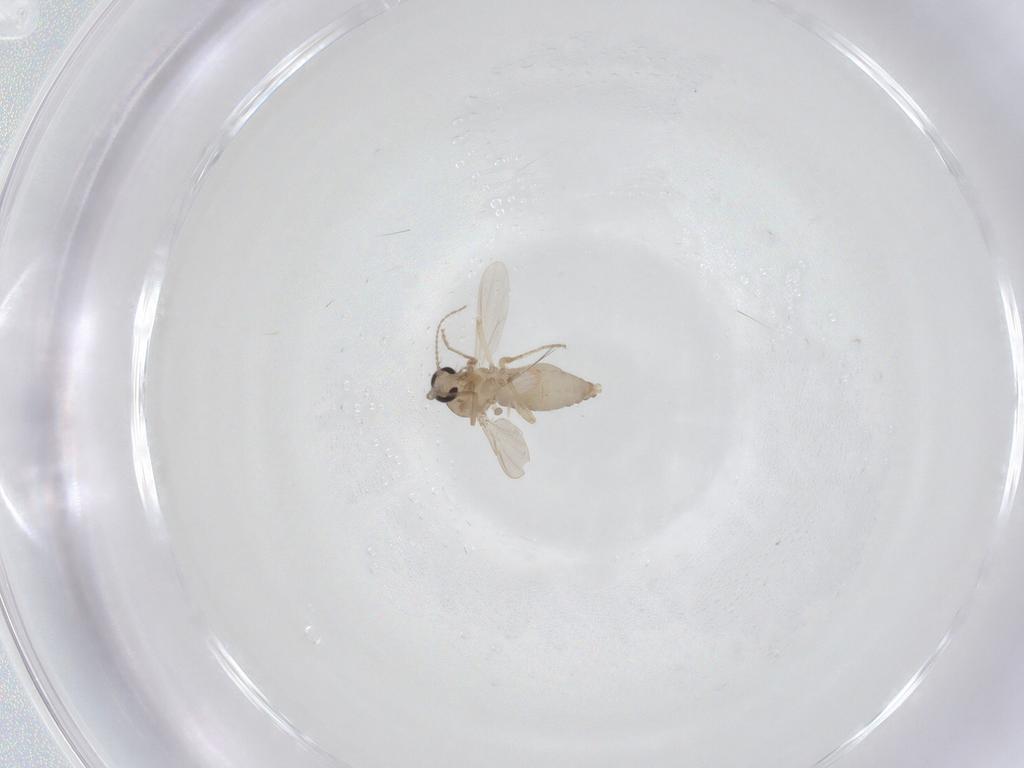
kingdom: Animalia
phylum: Arthropoda
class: Insecta
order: Diptera
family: Ceratopogonidae
